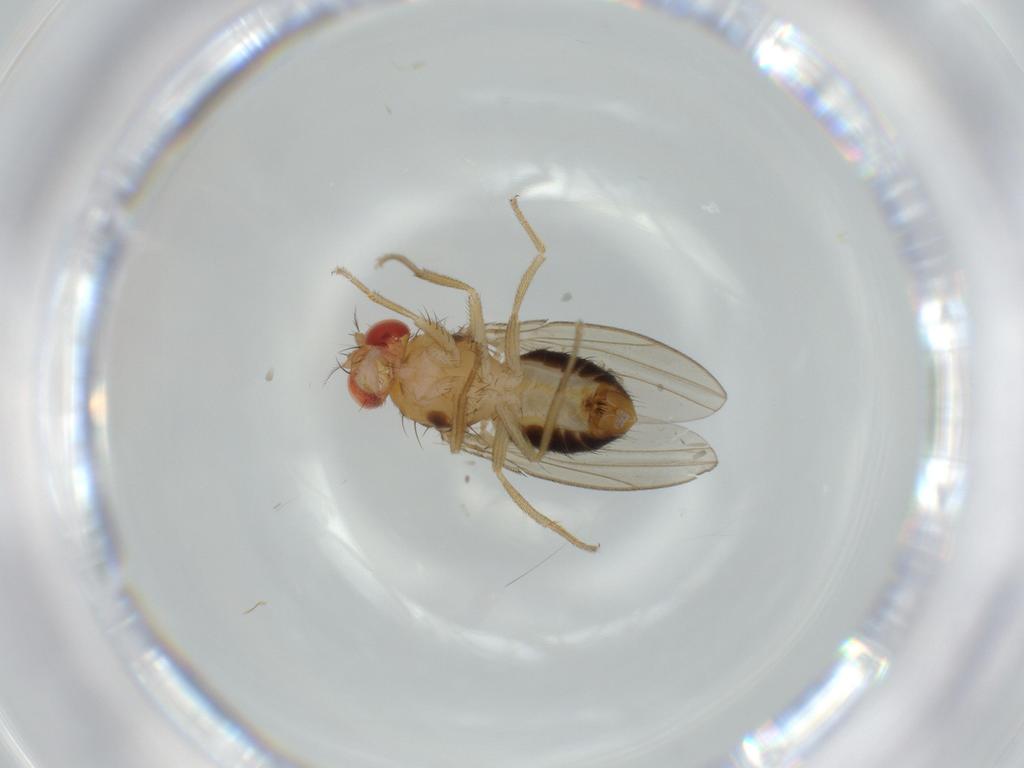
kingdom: Animalia
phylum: Arthropoda
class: Insecta
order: Diptera
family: Drosophilidae
